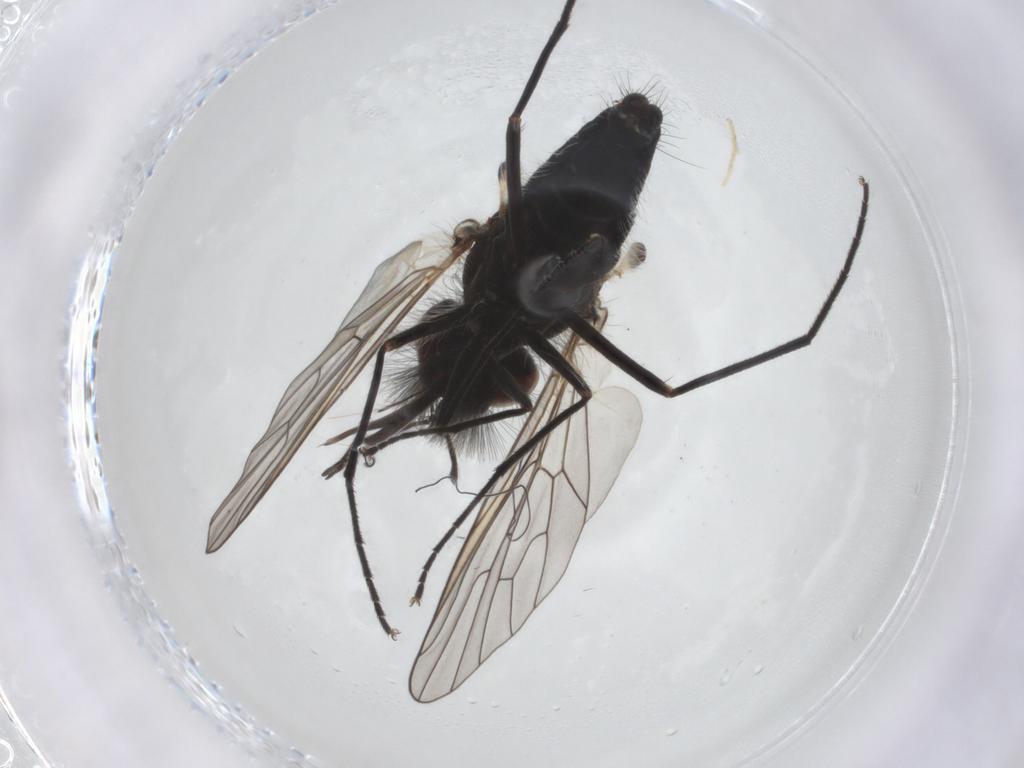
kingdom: Animalia
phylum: Arthropoda
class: Insecta
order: Diptera
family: Bombyliidae
